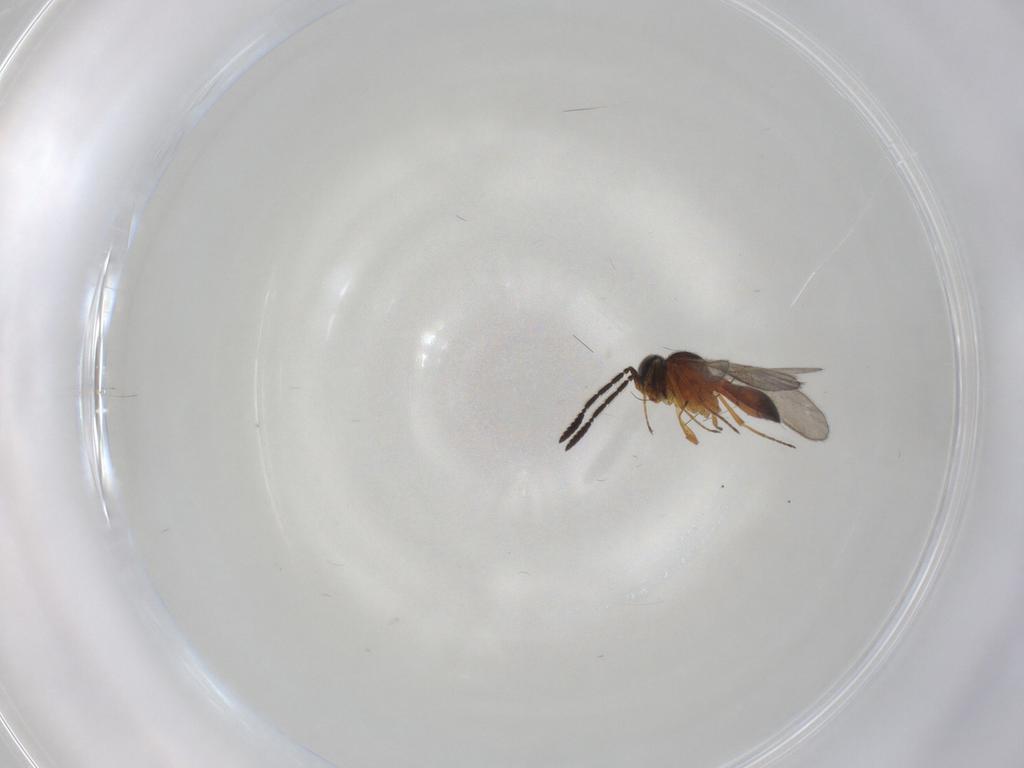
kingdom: Animalia
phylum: Arthropoda
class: Insecta
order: Hymenoptera
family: Scelionidae
